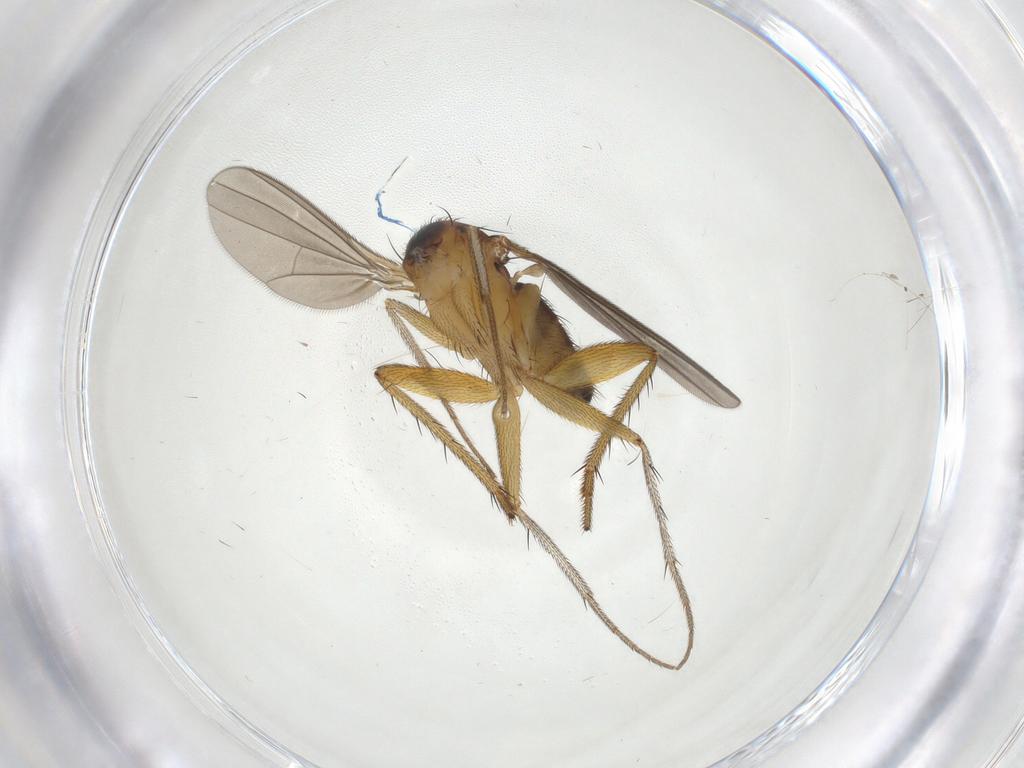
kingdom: Animalia
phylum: Arthropoda
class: Insecta
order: Diptera
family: Dolichopodidae
